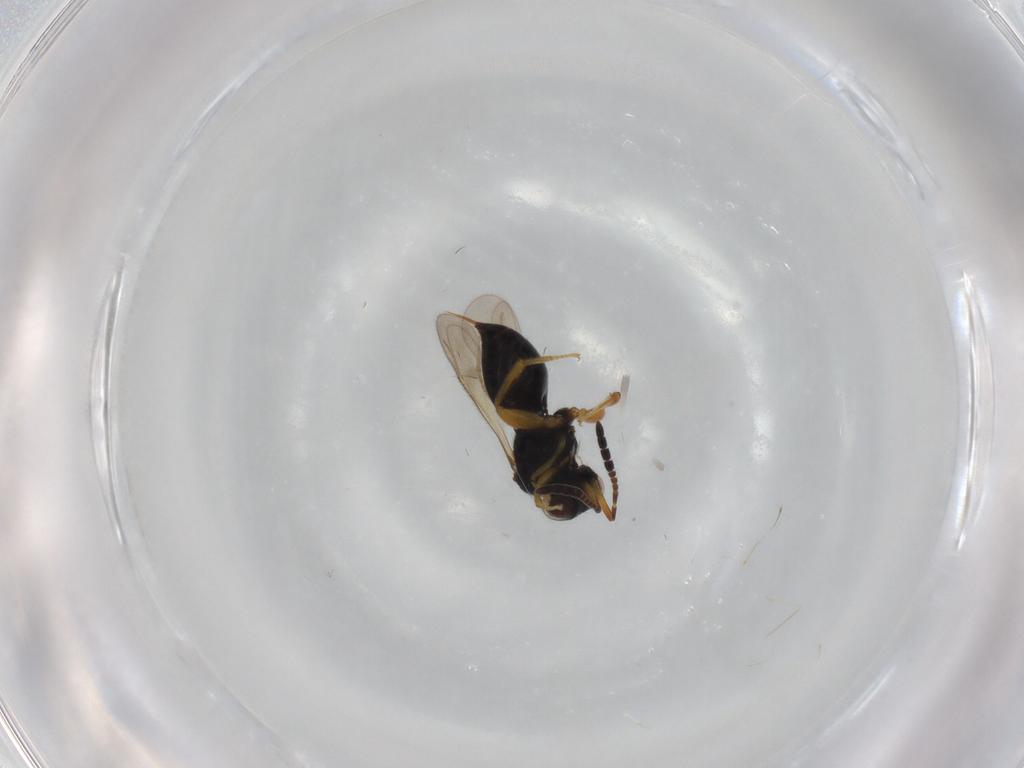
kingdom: Animalia
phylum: Arthropoda
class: Insecta
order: Hymenoptera
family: Ceraphronidae
